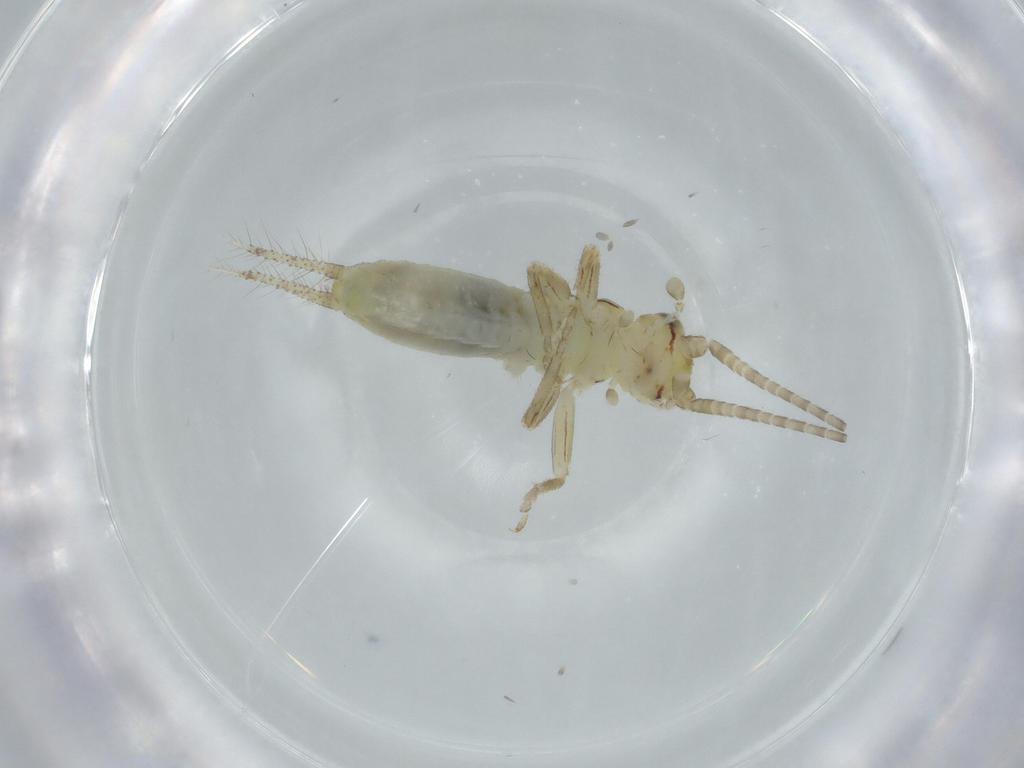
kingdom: Animalia
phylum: Arthropoda
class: Insecta
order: Orthoptera
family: Gryllidae
